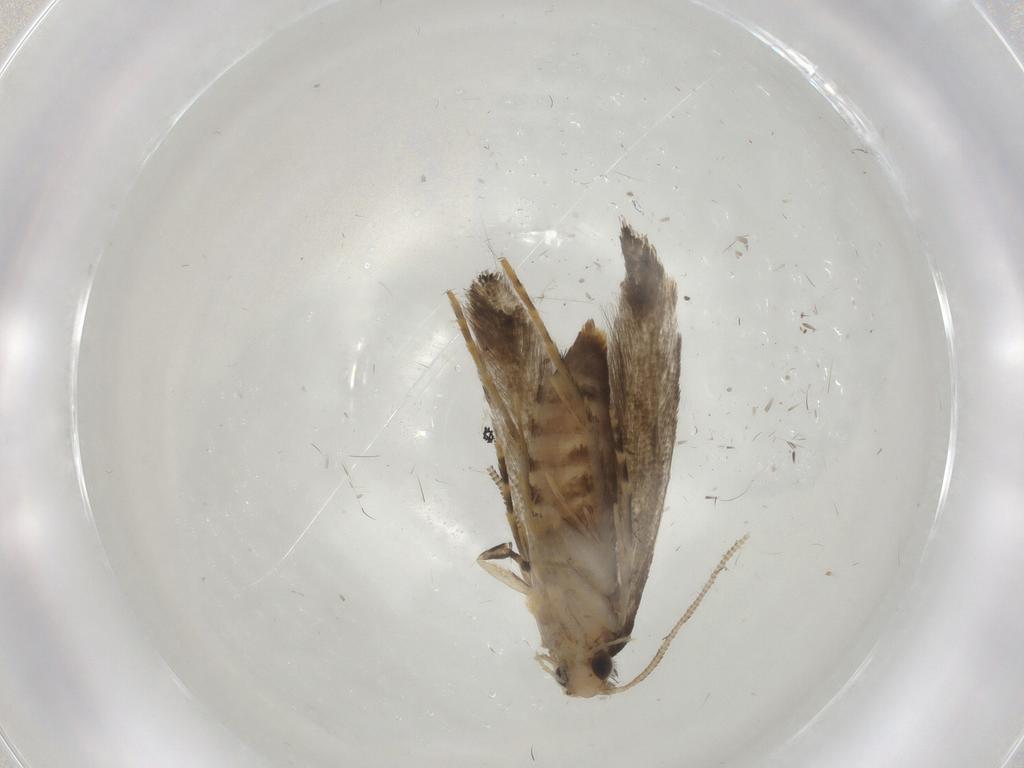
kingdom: Animalia
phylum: Arthropoda
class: Insecta
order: Lepidoptera
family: Meessiidae
